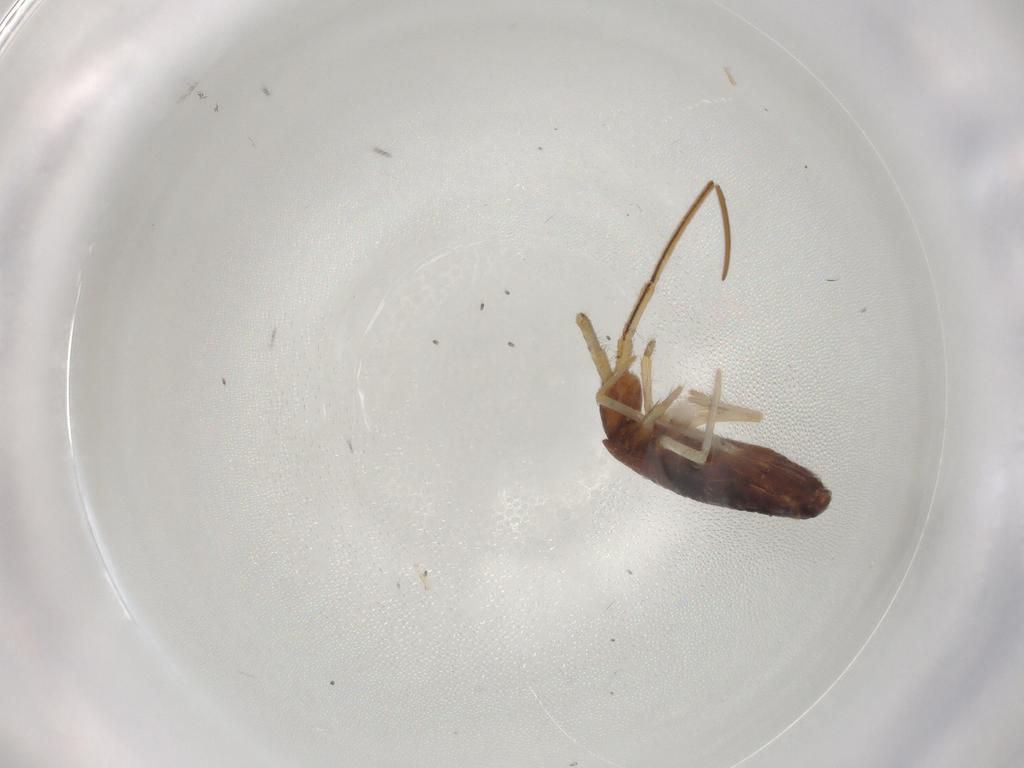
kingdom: Animalia
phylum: Arthropoda
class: Collembola
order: Entomobryomorpha
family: Entomobryidae
